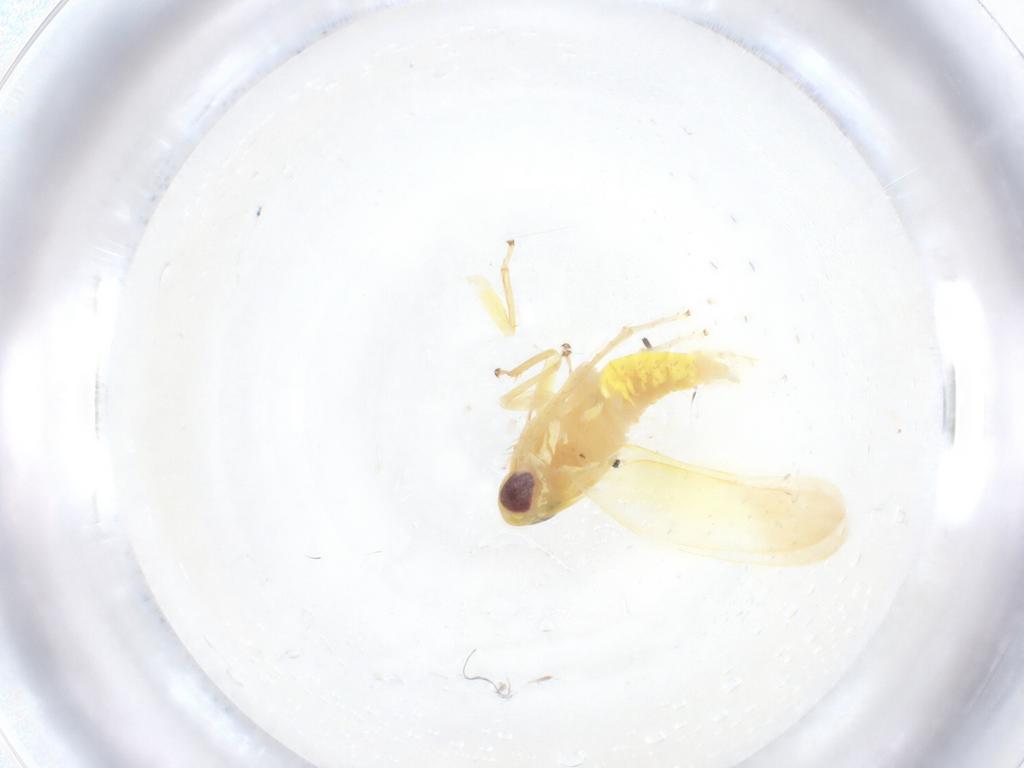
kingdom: Animalia
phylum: Arthropoda
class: Insecta
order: Hemiptera
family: Cicadellidae
